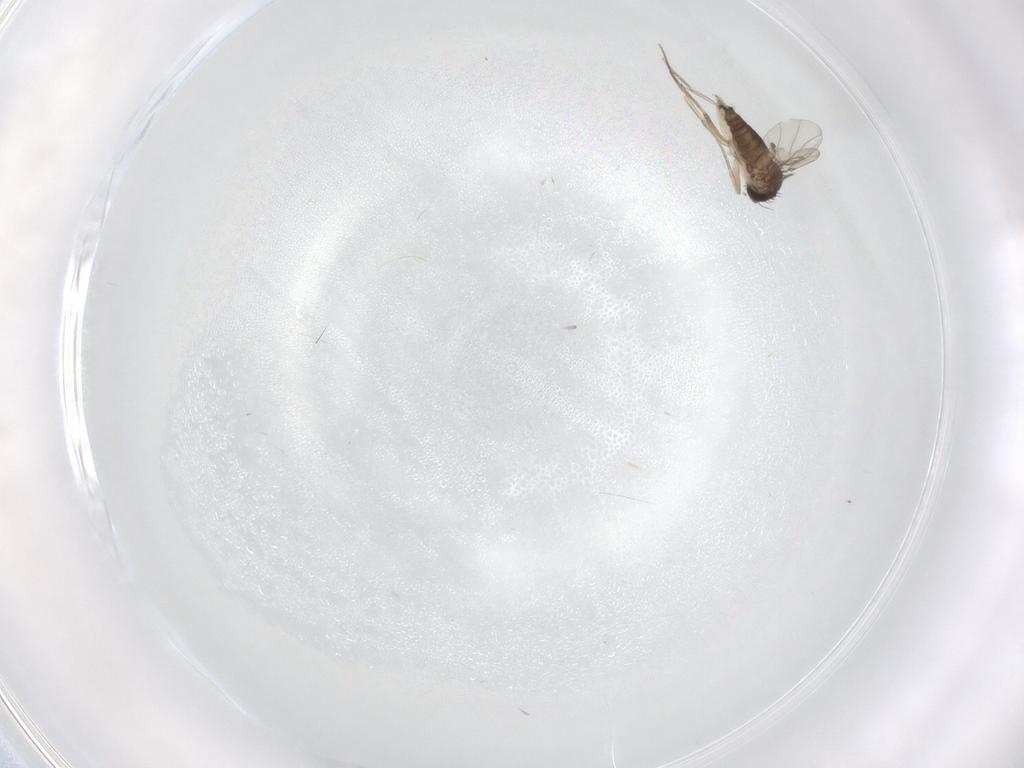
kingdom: Animalia
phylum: Arthropoda
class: Insecta
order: Diptera
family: Phoridae
